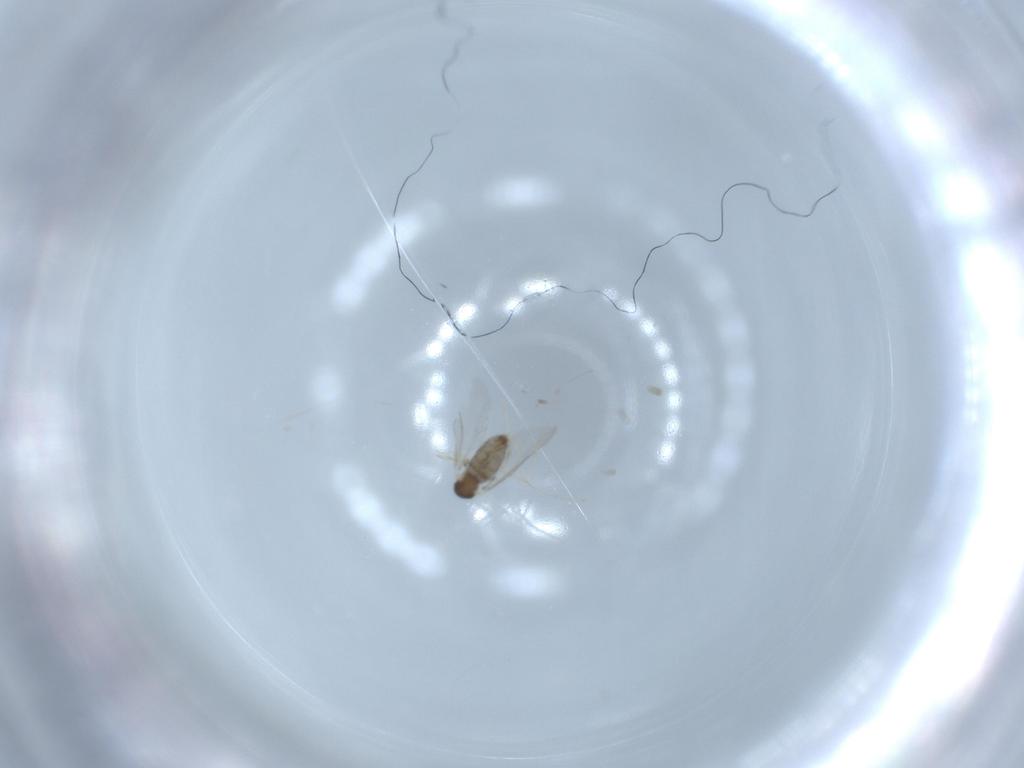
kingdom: Animalia
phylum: Arthropoda
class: Insecta
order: Diptera
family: Cecidomyiidae
